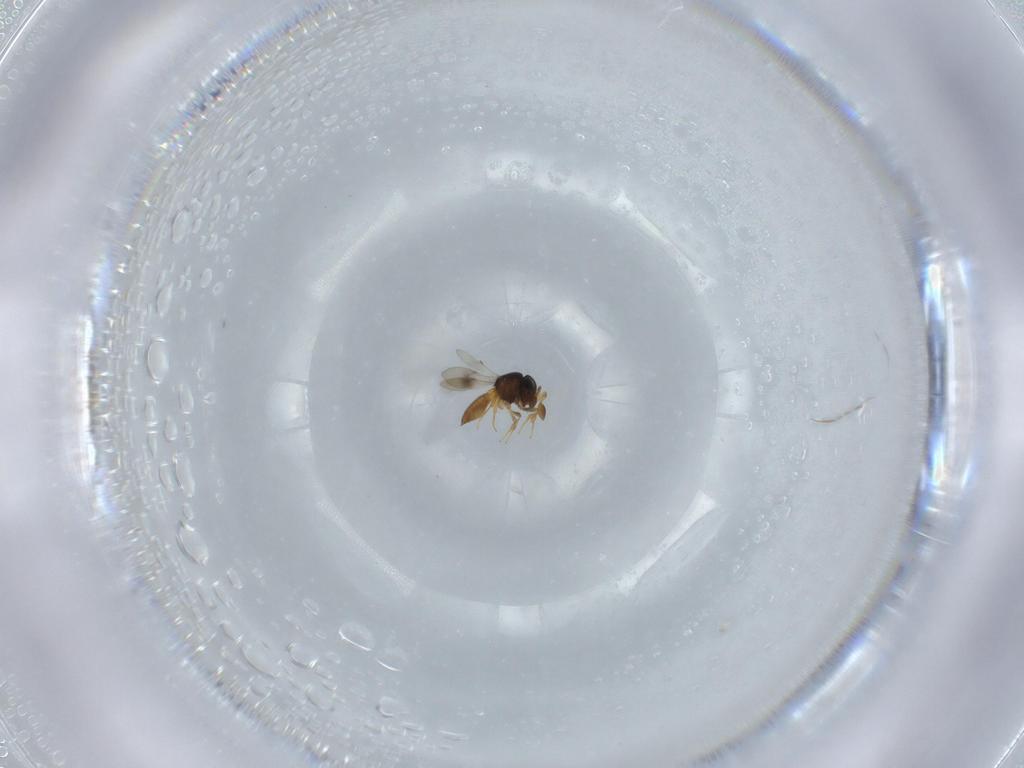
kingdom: Animalia
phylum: Arthropoda
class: Insecta
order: Hymenoptera
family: Scelionidae
